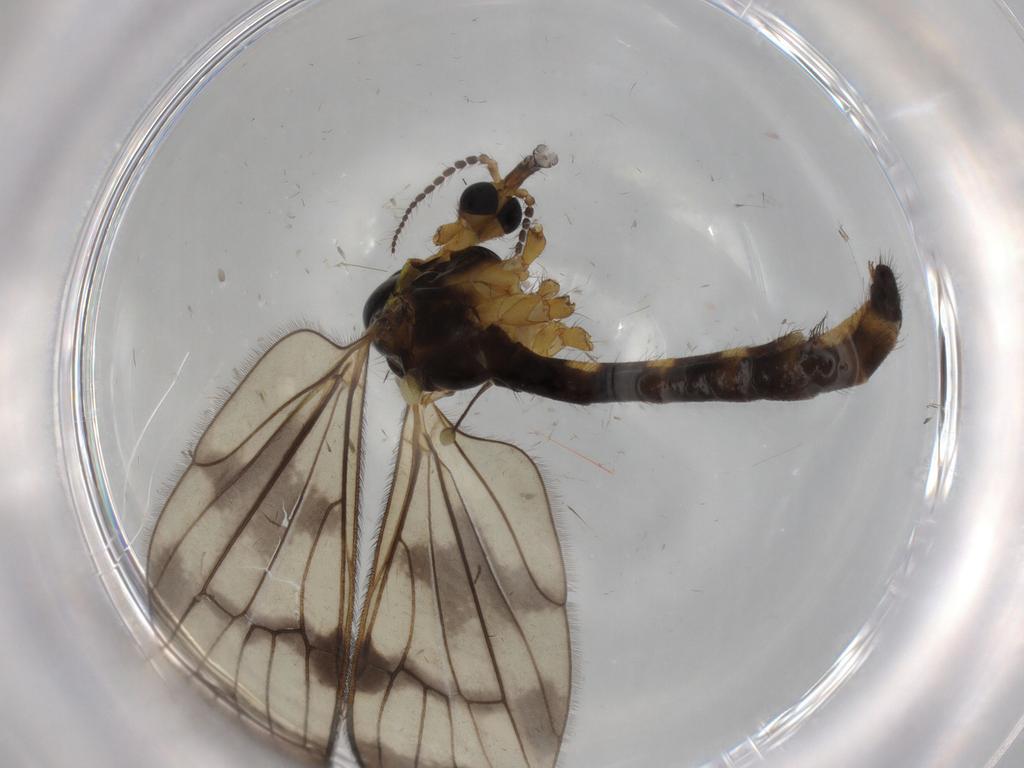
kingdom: Animalia
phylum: Arthropoda
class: Insecta
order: Diptera
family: Limoniidae
